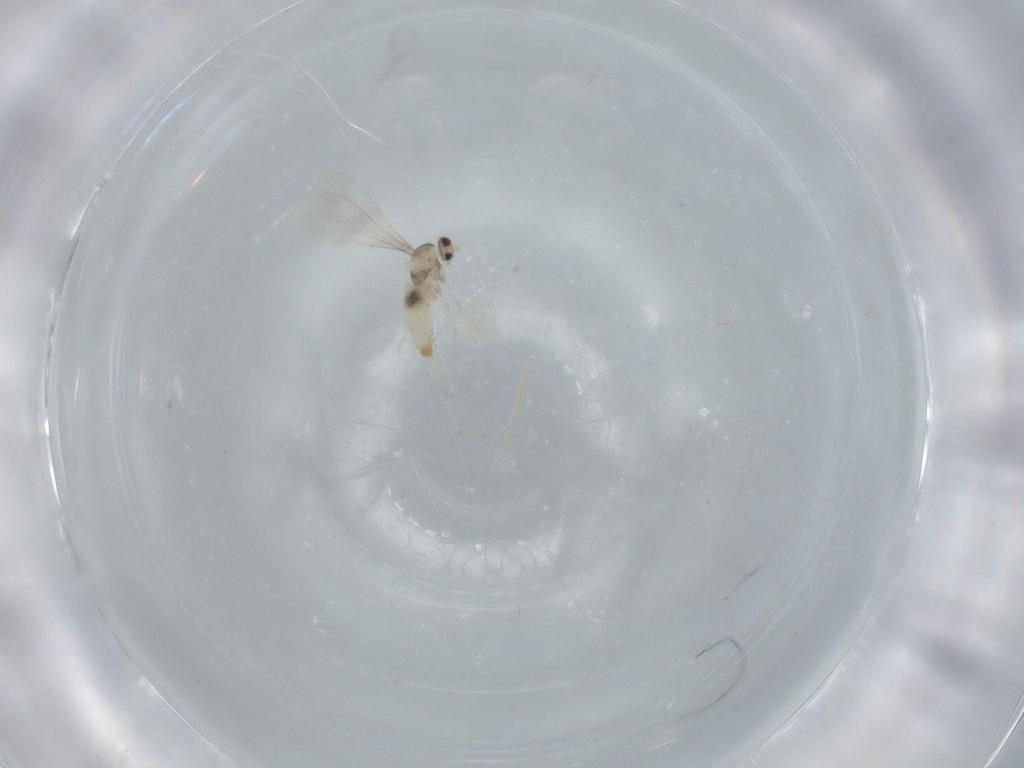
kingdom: Animalia
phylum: Arthropoda
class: Insecta
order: Diptera
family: Cecidomyiidae
